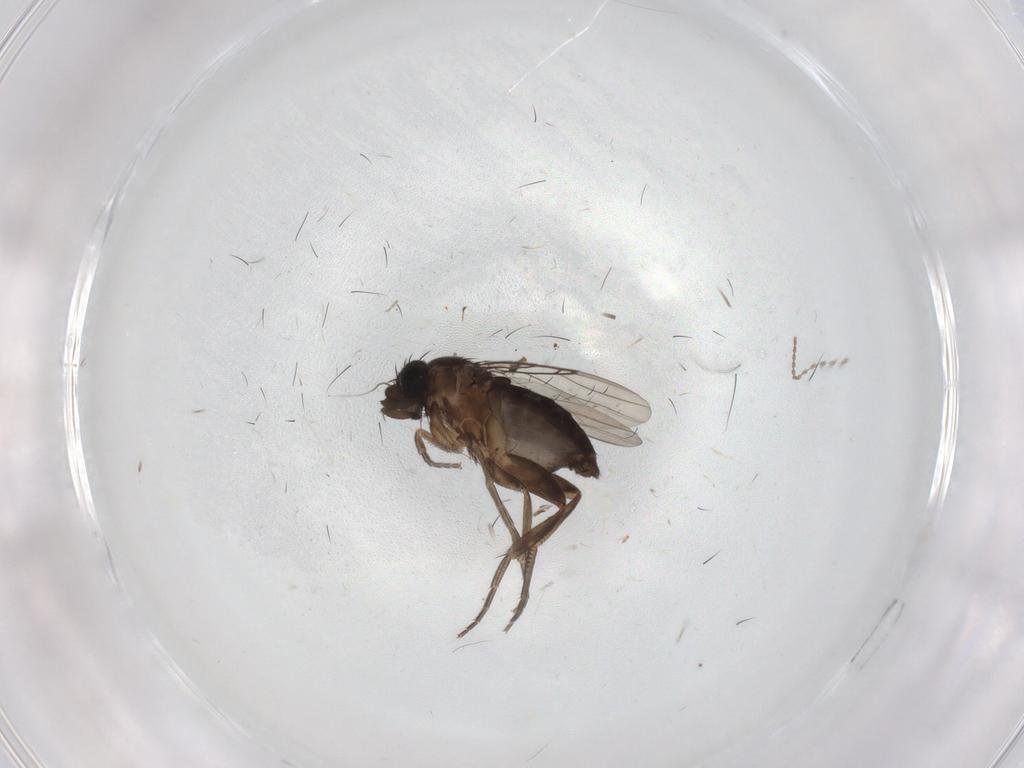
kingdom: Animalia
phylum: Arthropoda
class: Insecta
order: Diptera
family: Phoridae
